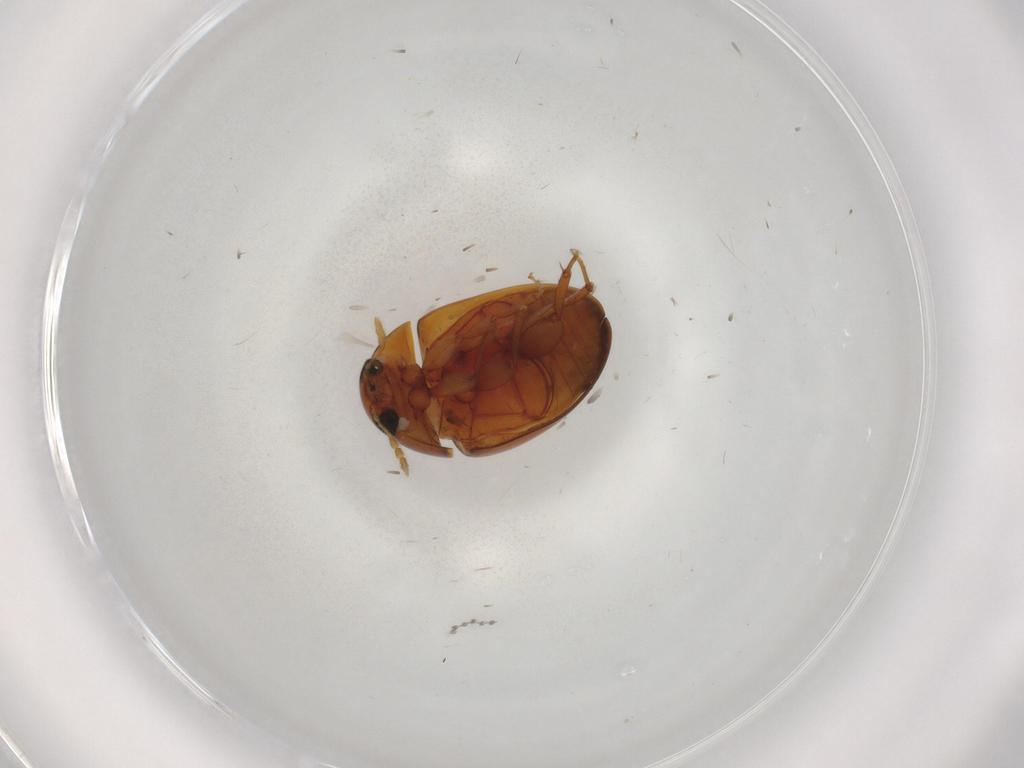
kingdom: Animalia
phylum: Arthropoda
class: Insecta
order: Coleoptera
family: Phalacridae
